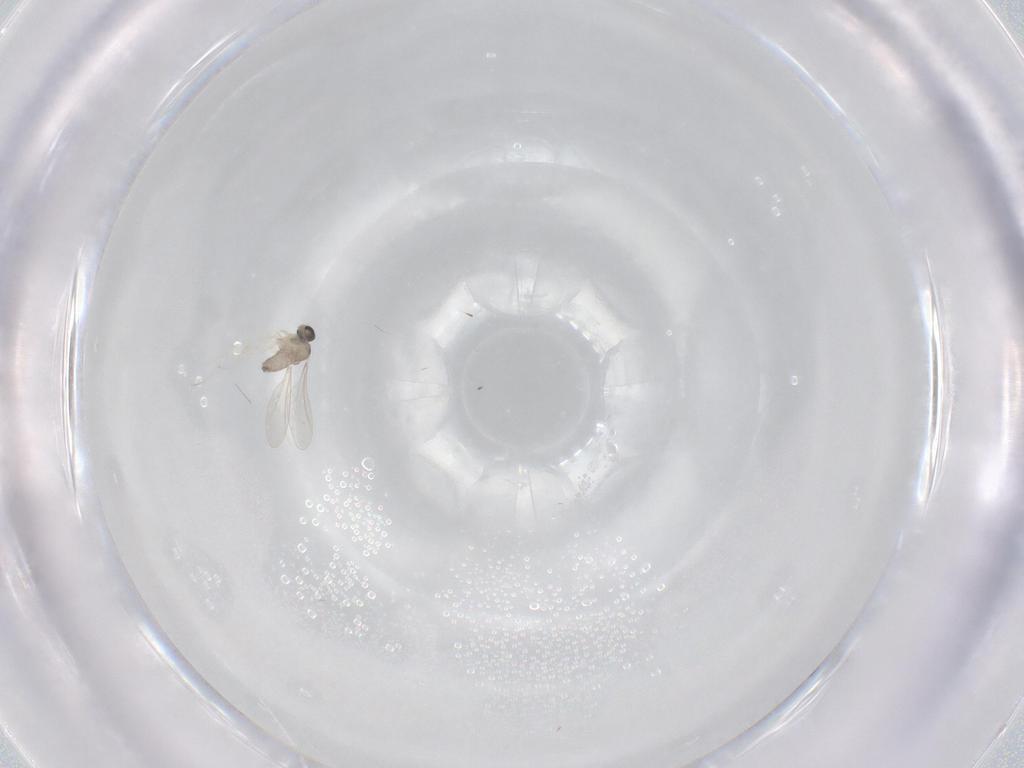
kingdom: Animalia
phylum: Arthropoda
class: Insecta
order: Diptera
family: Cecidomyiidae
